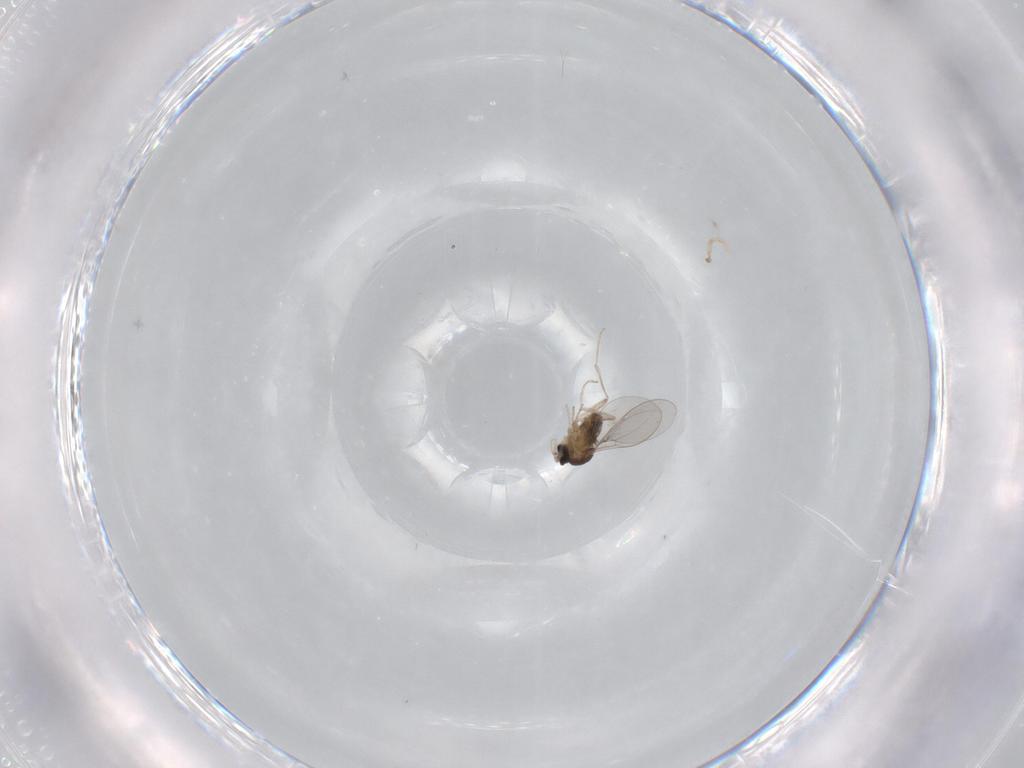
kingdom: Animalia
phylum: Arthropoda
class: Insecta
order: Diptera
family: Cecidomyiidae
